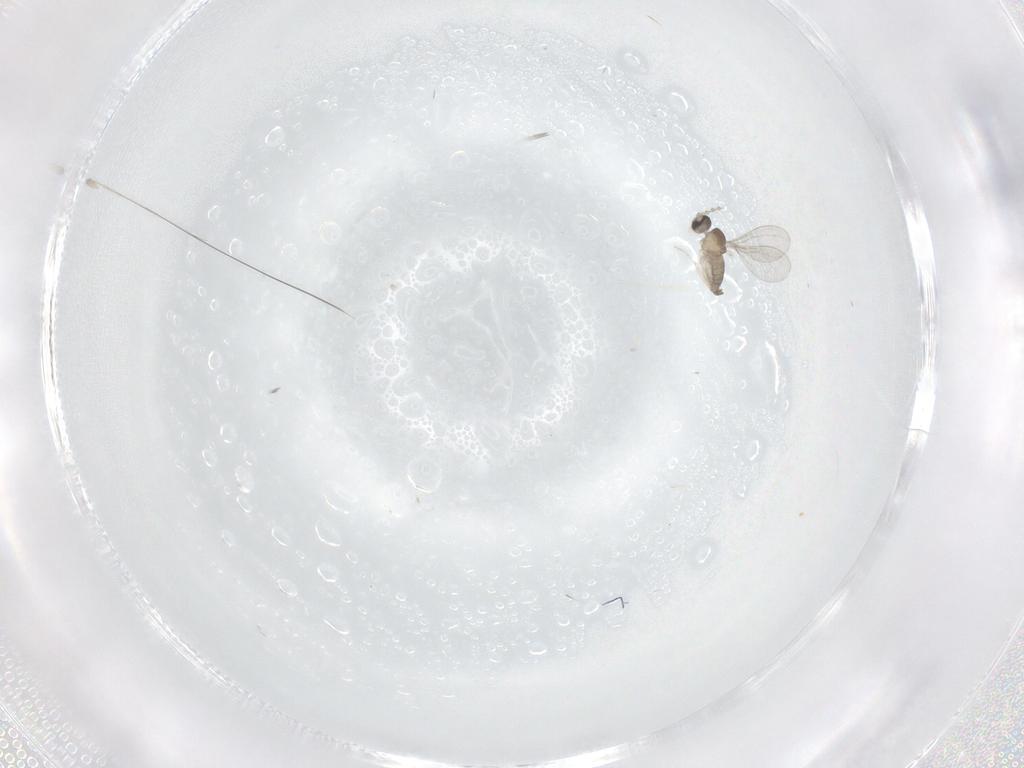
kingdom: Animalia
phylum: Arthropoda
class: Insecta
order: Diptera
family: Cecidomyiidae
